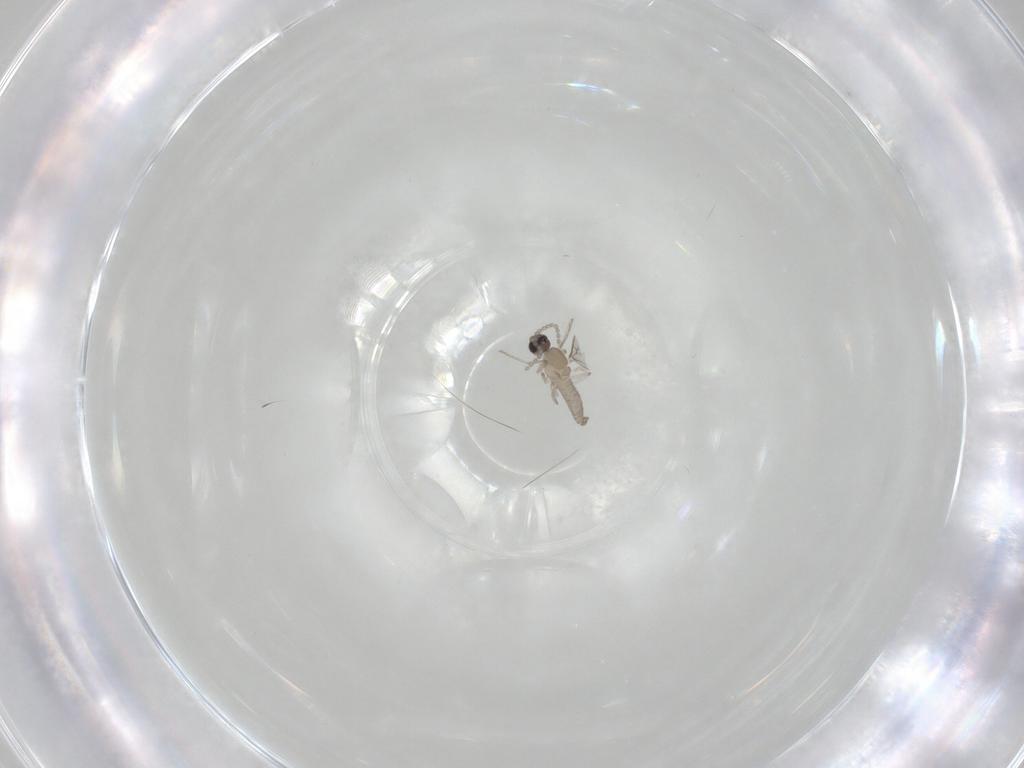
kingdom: Animalia
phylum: Arthropoda
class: Insecta
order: Diptera
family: Cecidomyiidae
